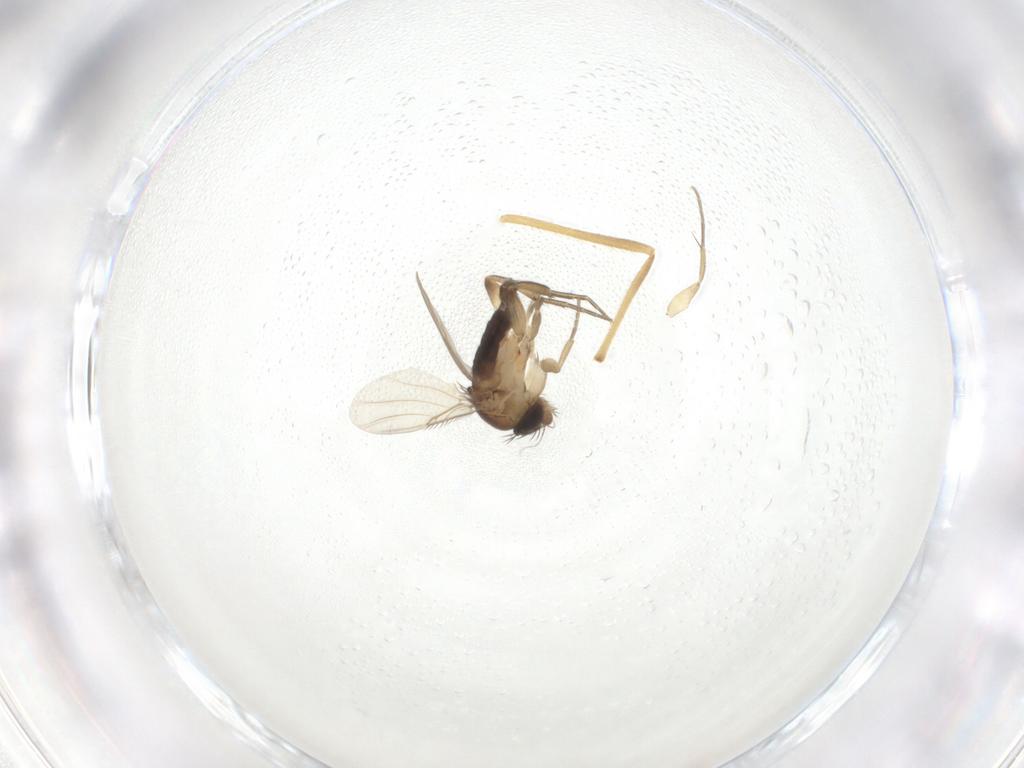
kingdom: Animalia
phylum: Arthropoda
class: Insecta
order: Diptera
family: Phoridae
